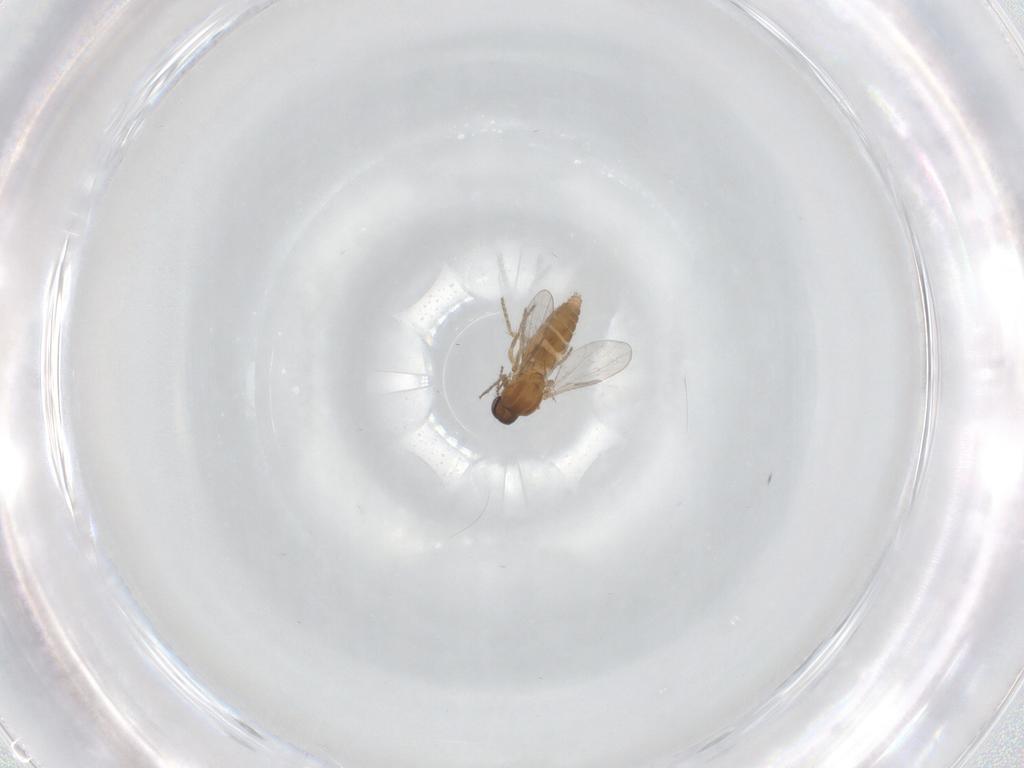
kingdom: Animalia
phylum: Arthropoda
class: Insecta
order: Diptera
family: Ceratopogonidae
